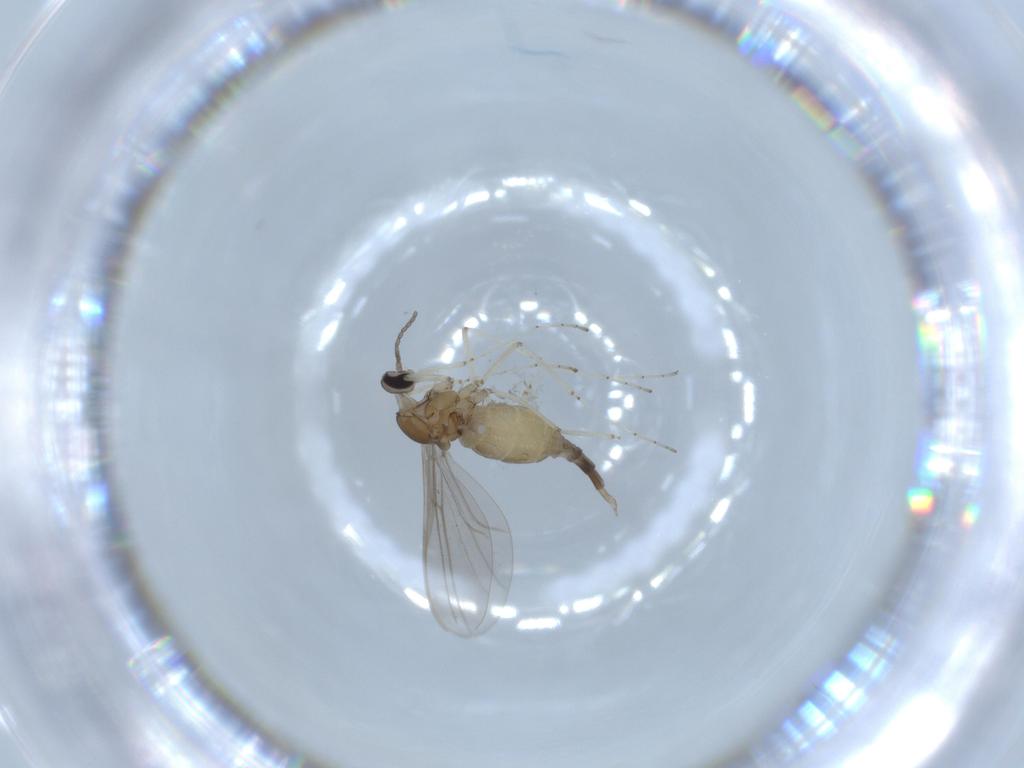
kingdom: Animalia
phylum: Arthropoda
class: Insecta
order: Diptera
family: Cecidomyiidae
